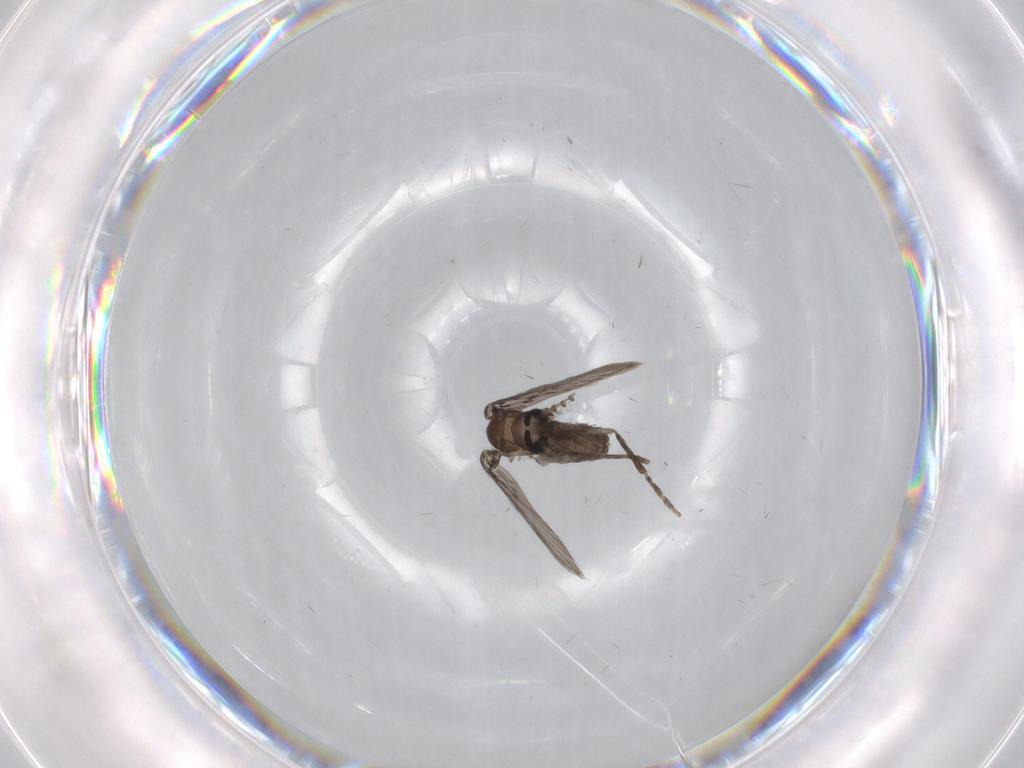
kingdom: Animalia
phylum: Arthropoda
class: Insecta
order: Diptera
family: Psychodidae
